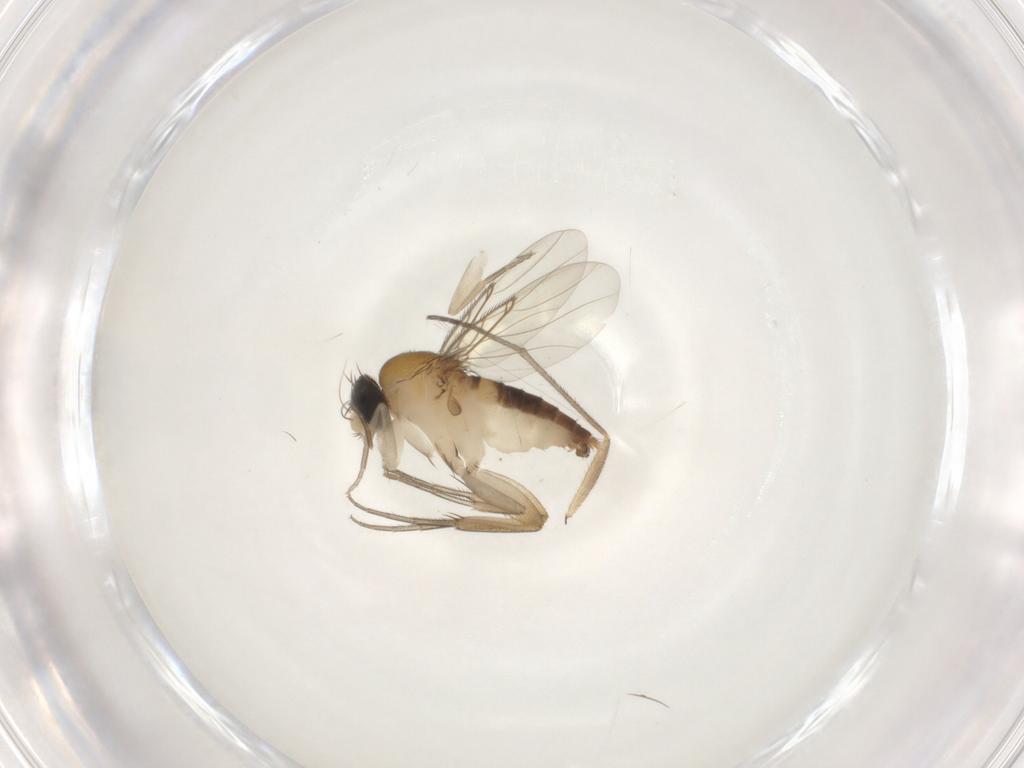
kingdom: Animalia
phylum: Arthropoda
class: Insecta
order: Diptera
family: Phoridae
